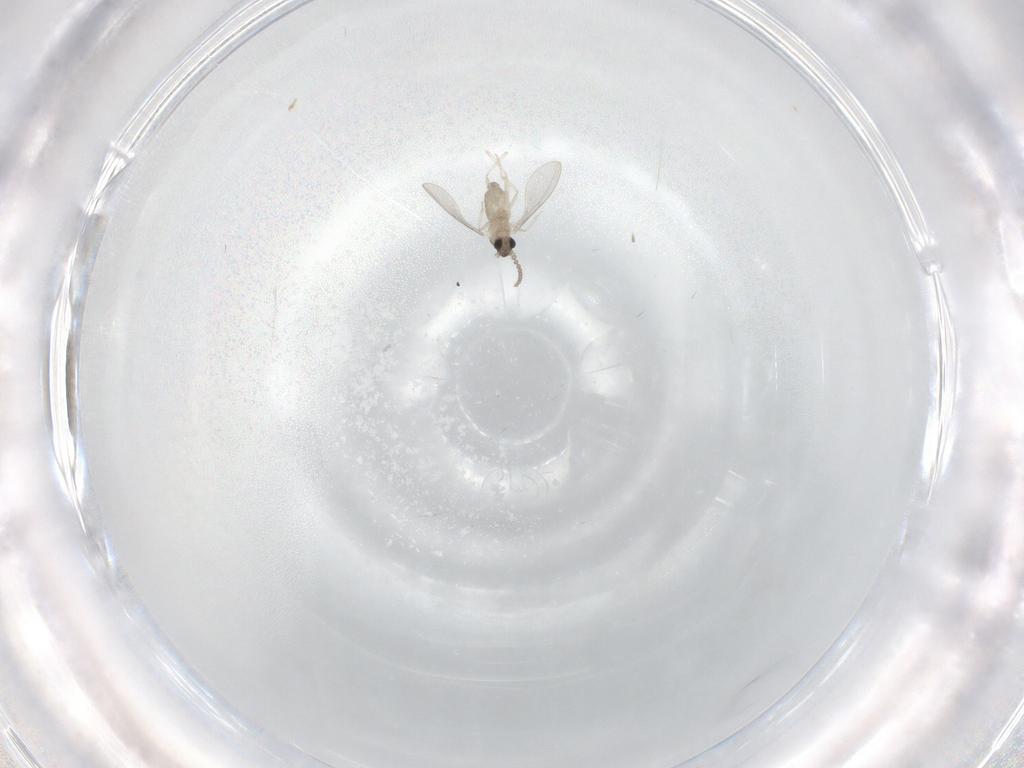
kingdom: Animalia
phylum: Arthropoda
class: Insecta
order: Diptera
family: Cecidomyiidae
